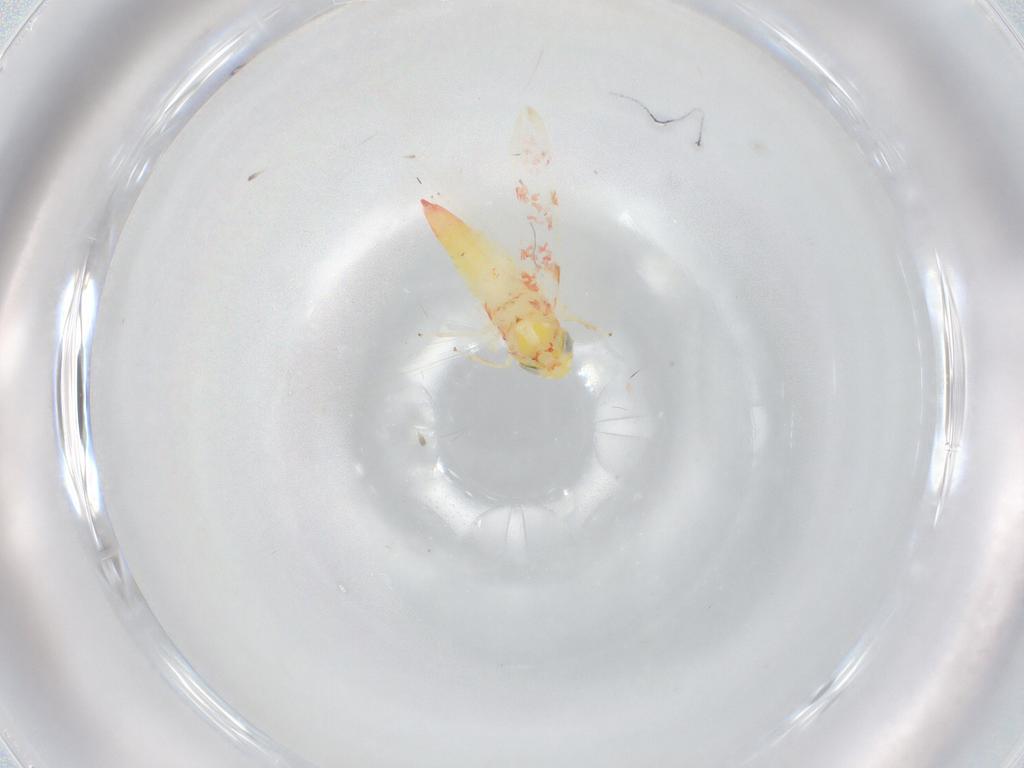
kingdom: Animalia
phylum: Arthropoda
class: Insecta
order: Hemiptera
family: Cicadellidae
